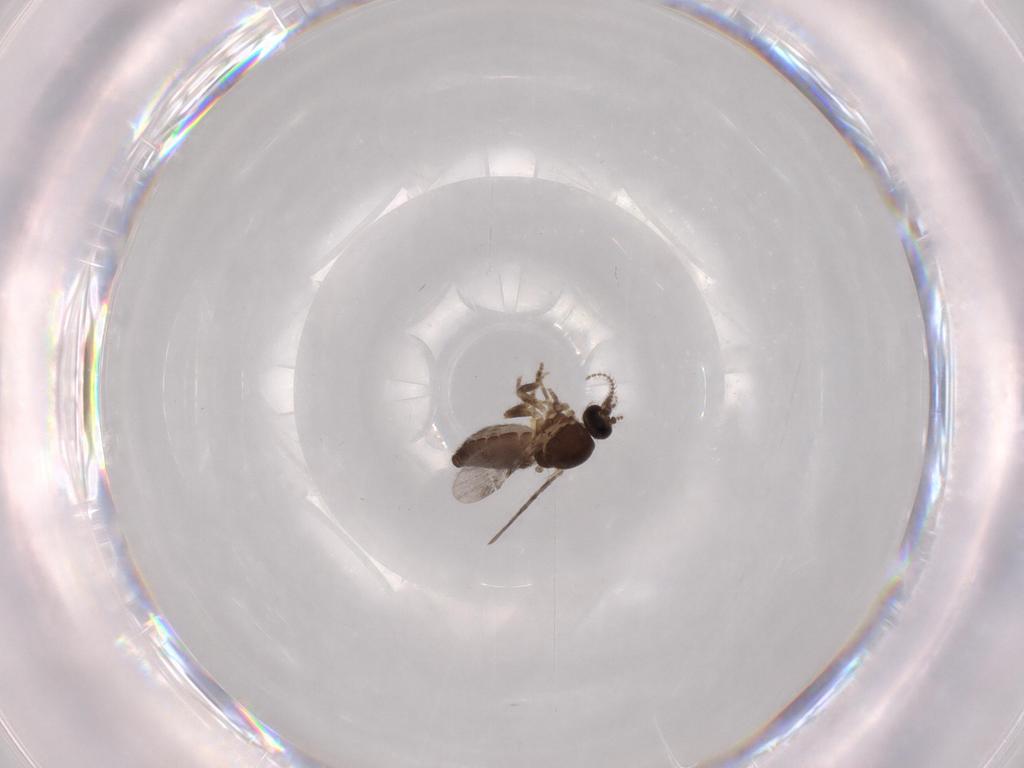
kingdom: Animalia
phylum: Arthropoda
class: Insecta
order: Diptera
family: Ceratopogonidae
